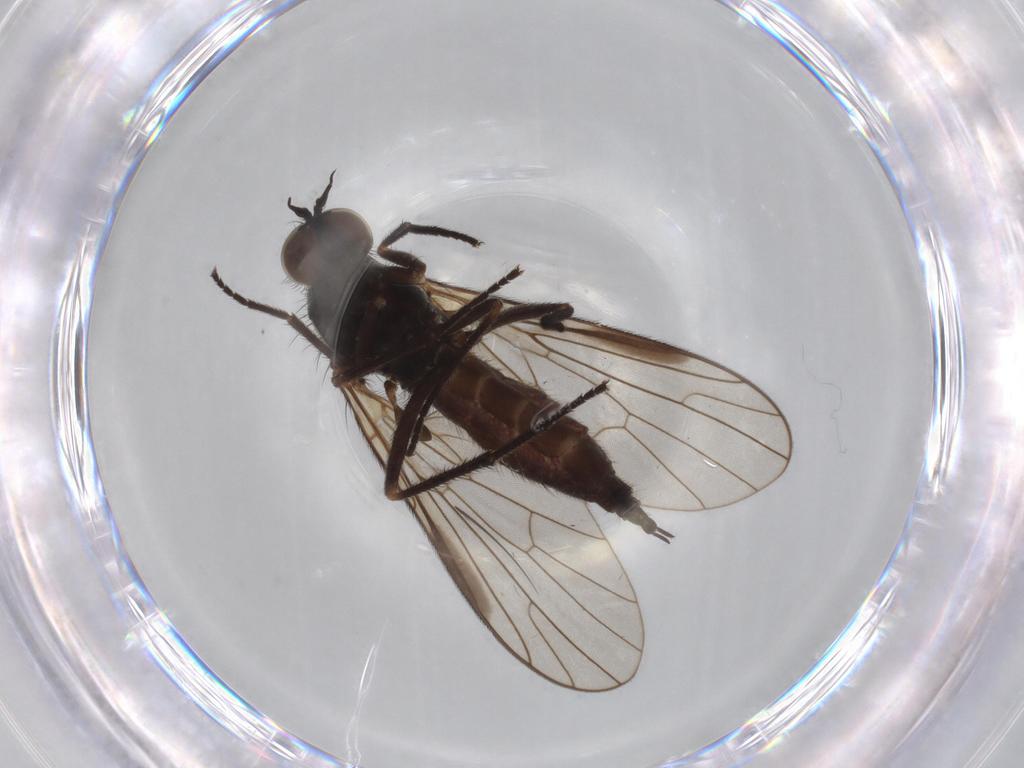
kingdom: Animalia
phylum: Arthropoda
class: Insecta
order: Diptera
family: Empididae
